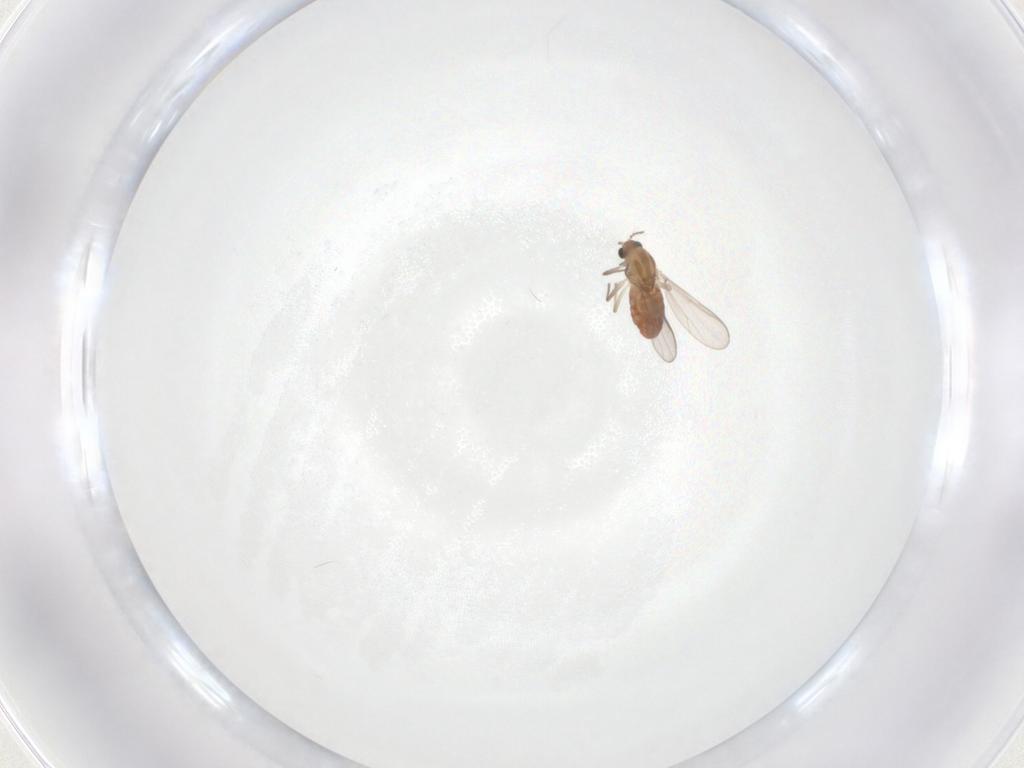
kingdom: Animalia
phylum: Arthropoda
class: Insecta
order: Diptera
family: Chironomidae
